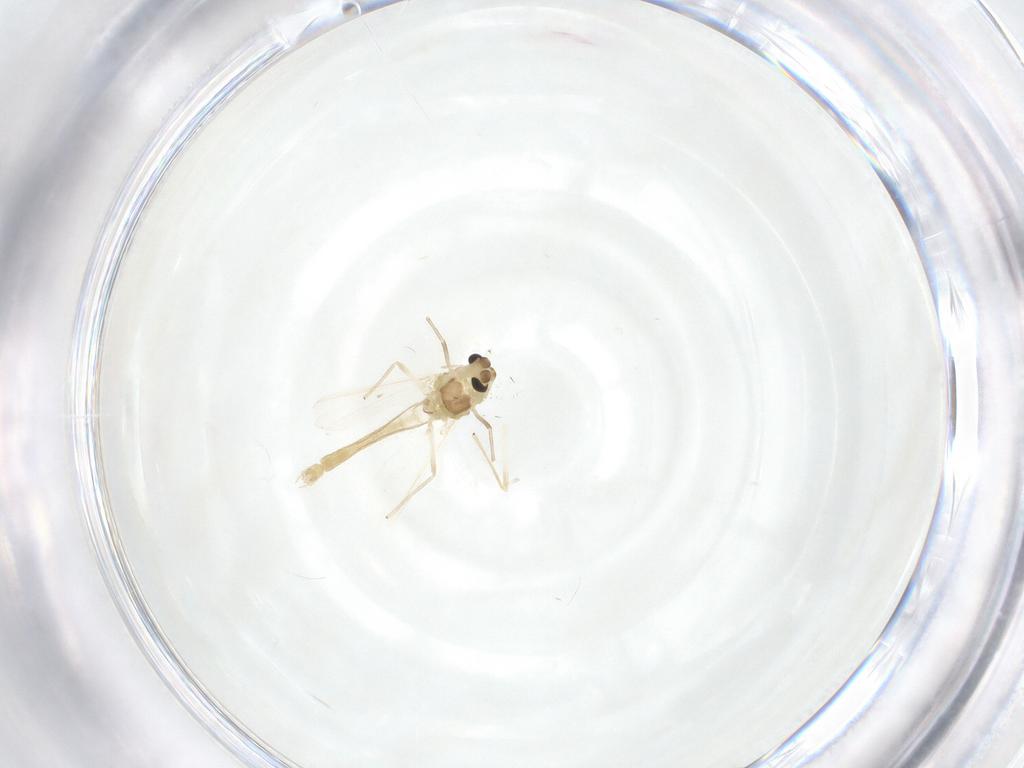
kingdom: Animalia
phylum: Arthropoda
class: Insecta
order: Diptera
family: Chironomidae
